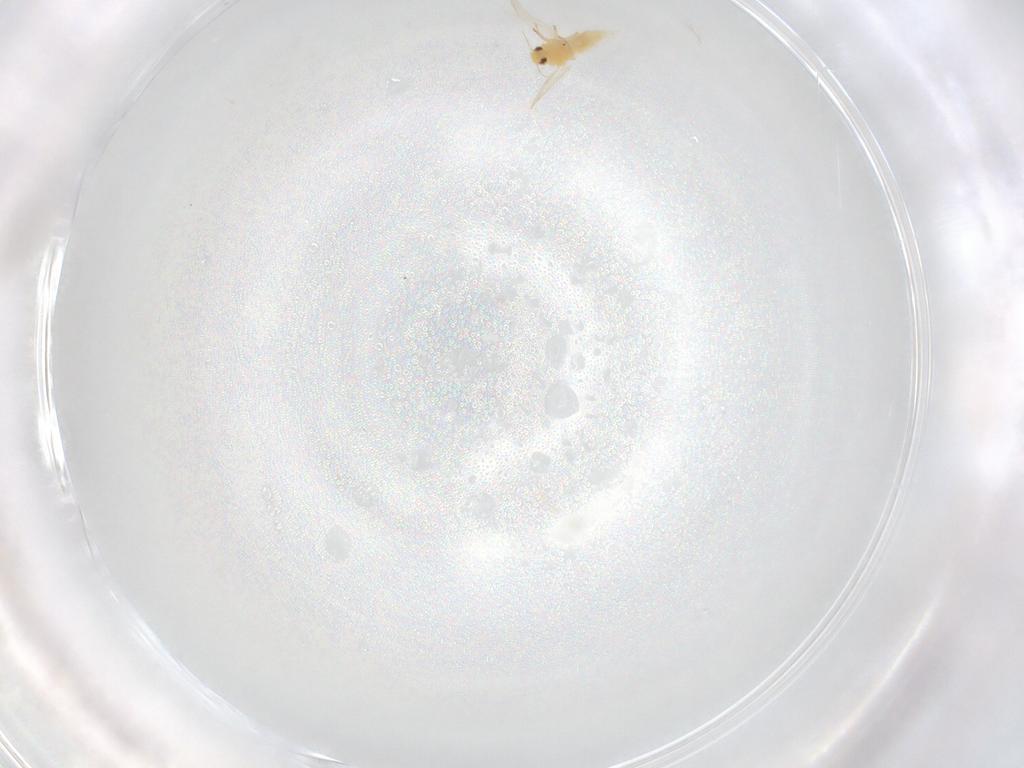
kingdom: Animalia
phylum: Arthropoda
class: Insecta
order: Hemiptera
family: Aleyrodidae
